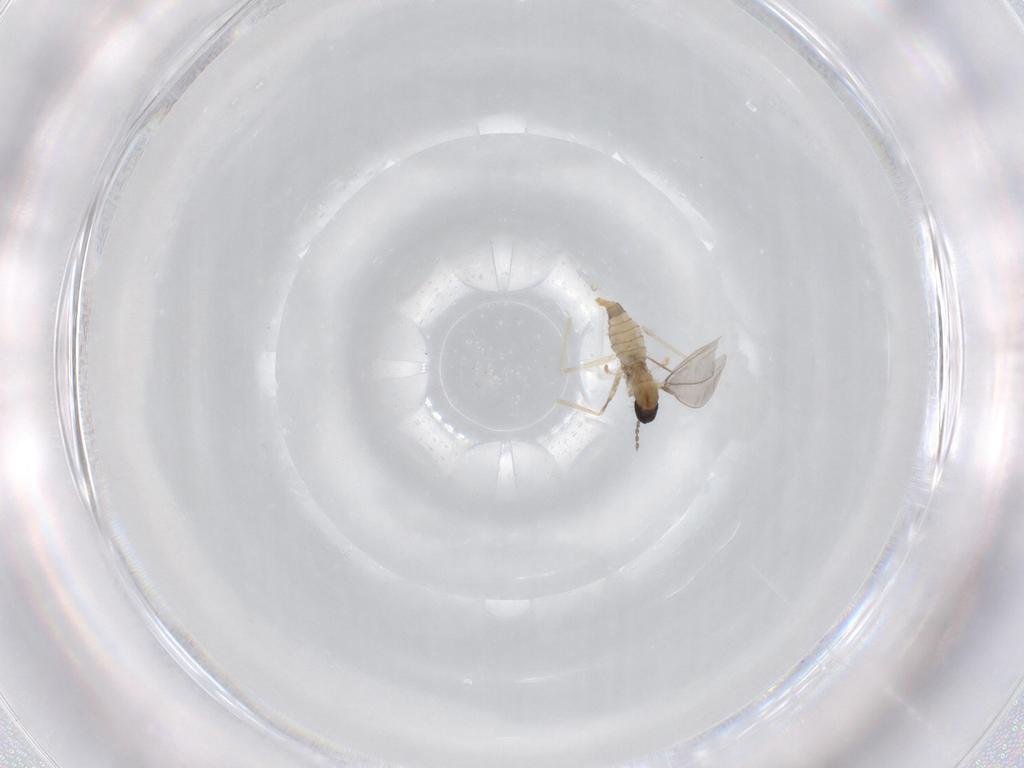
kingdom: Animalia
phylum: Arthropoda
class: Insecta
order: Diptera
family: Cecidomyiidae
